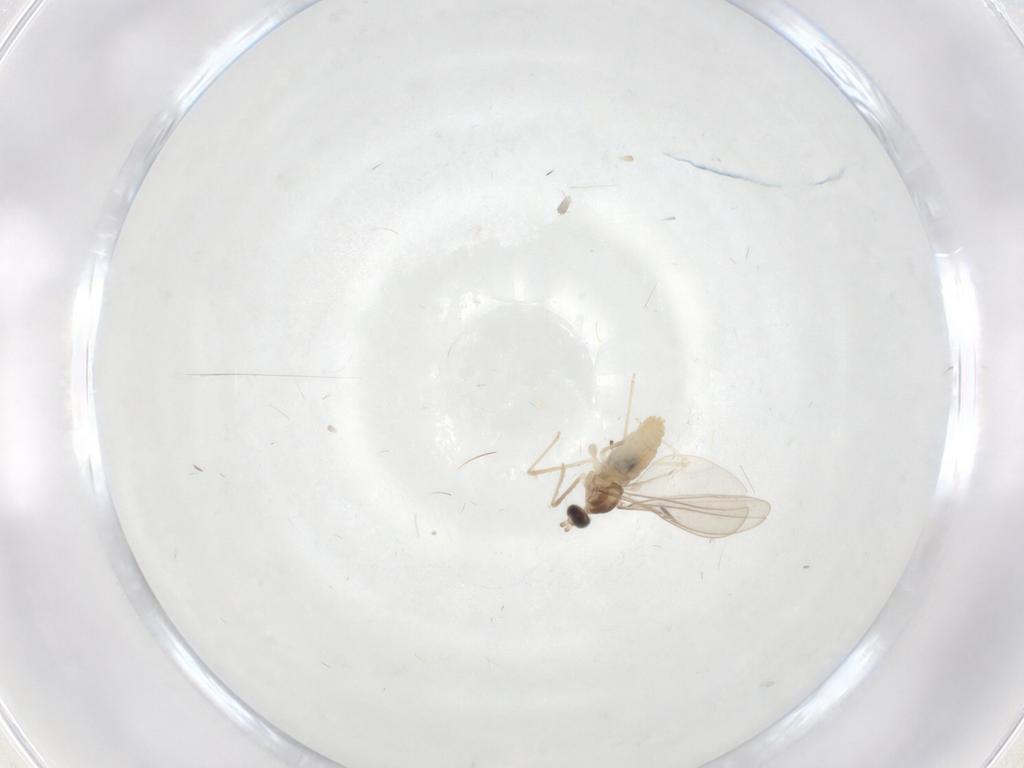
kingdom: Animalia
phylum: Arthropoda
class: Insecta
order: Diptera
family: Cecidomyiidae
